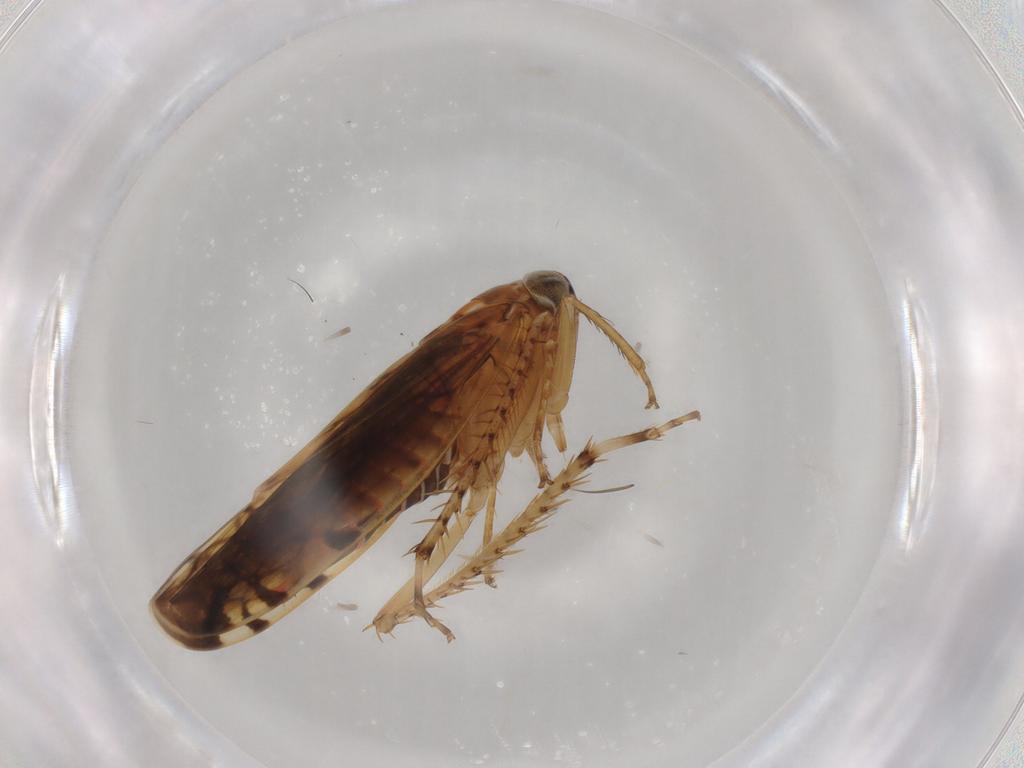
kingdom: Animalia
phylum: Arthropoda
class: Insecta
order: Hemiptera
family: Cicadellidae
